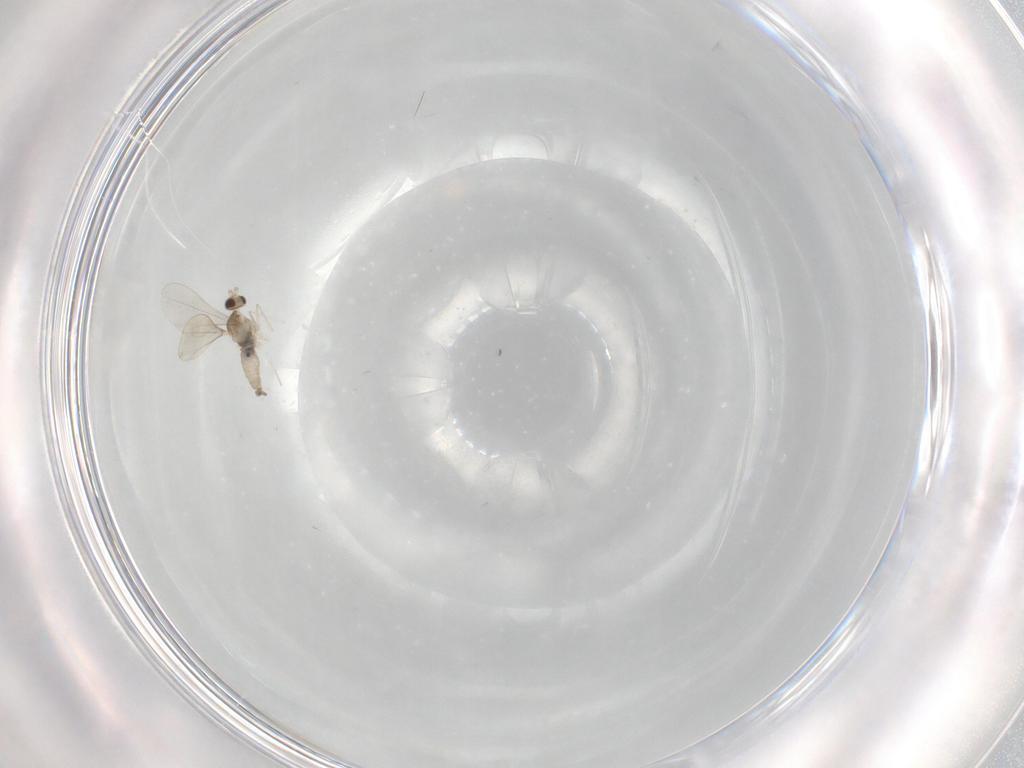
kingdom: Animalia
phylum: Arthropoda
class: Insecta
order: Diptera
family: Cecidomyiidae
